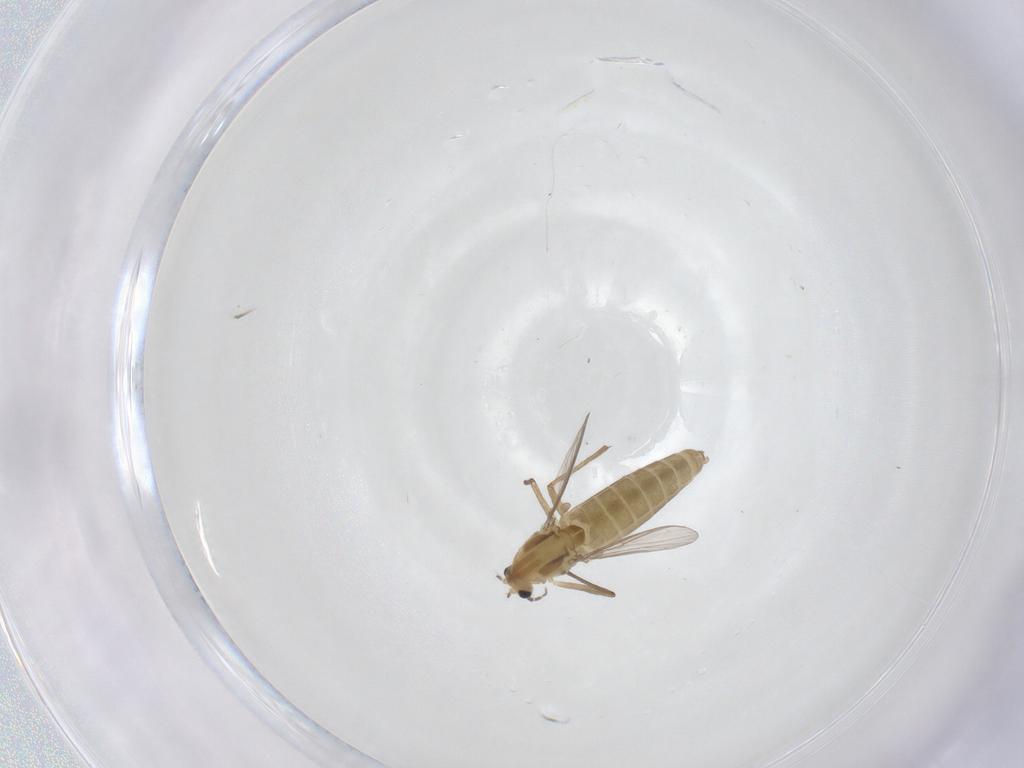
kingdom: Animalia
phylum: Arthropoda
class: Insecta
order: Diptera
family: Chironomidae
